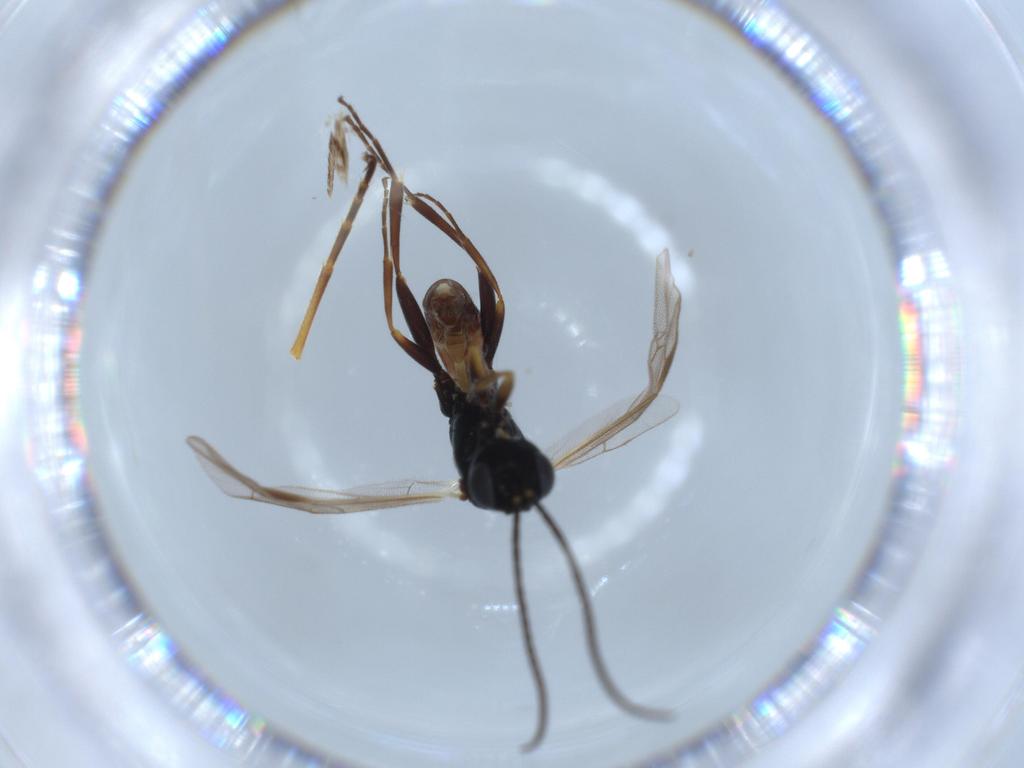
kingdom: Animalia
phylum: Arthropoda
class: Insecta
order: Hymenoptera
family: Ichneumonidae
